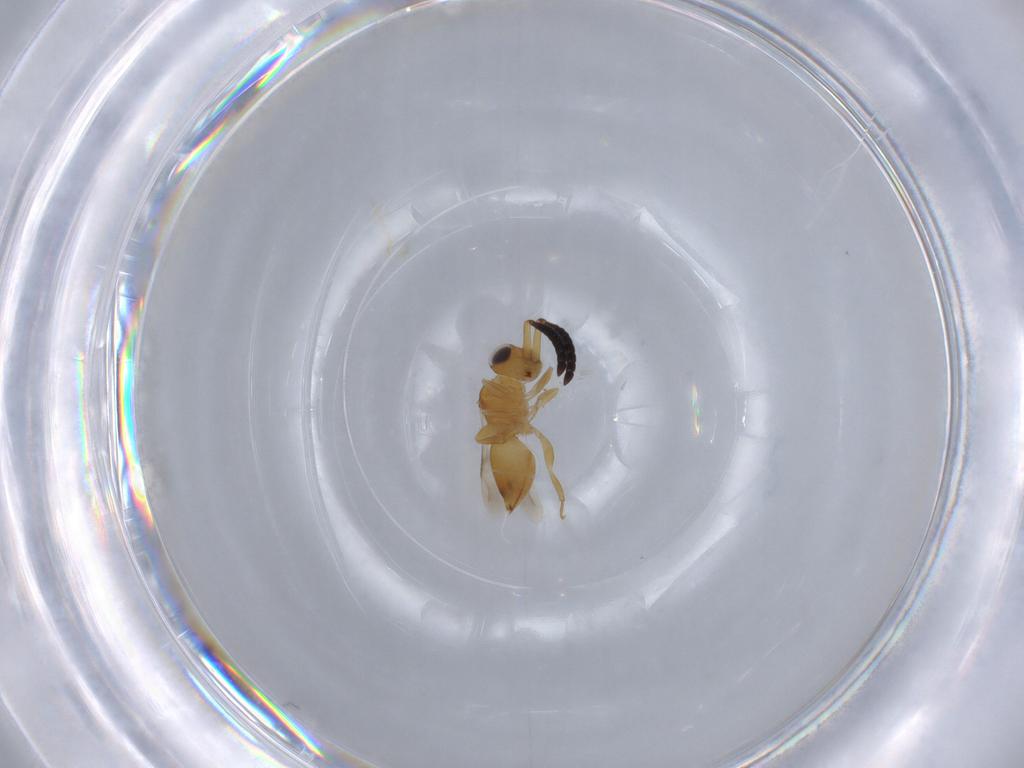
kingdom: Animalia
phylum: Arthropoda
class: Insecta
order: Hymenoptera
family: Ceraphronidae
